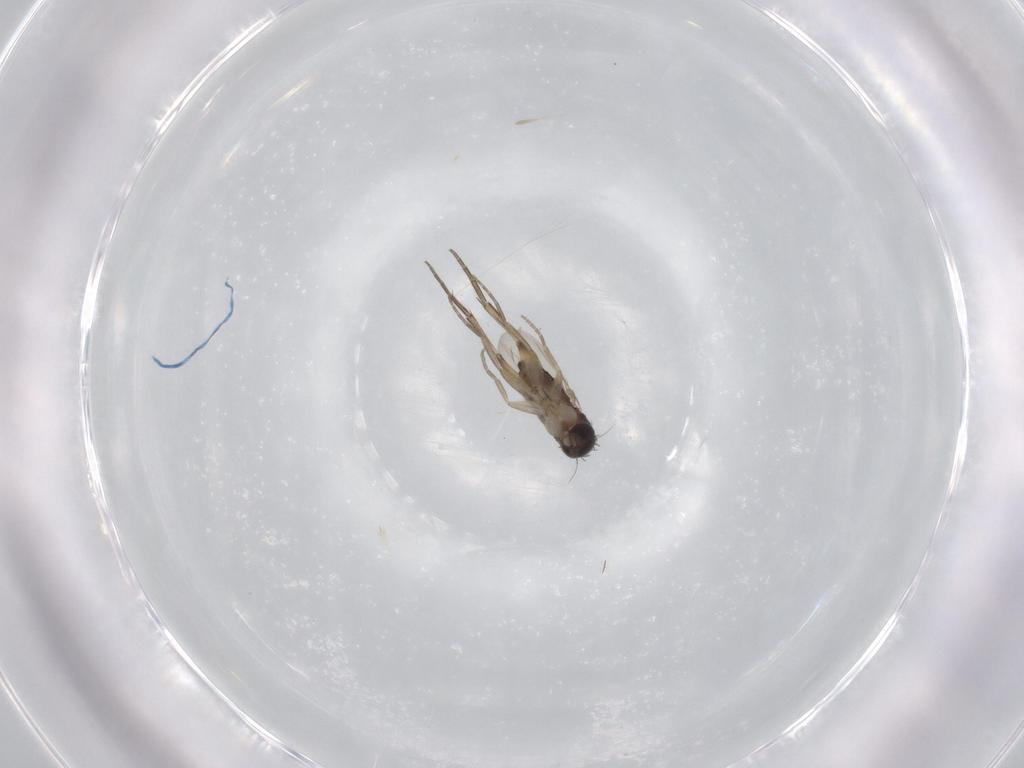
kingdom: Animalia
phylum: Arthropoda
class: Insecta
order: Diptera
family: Phoridae
